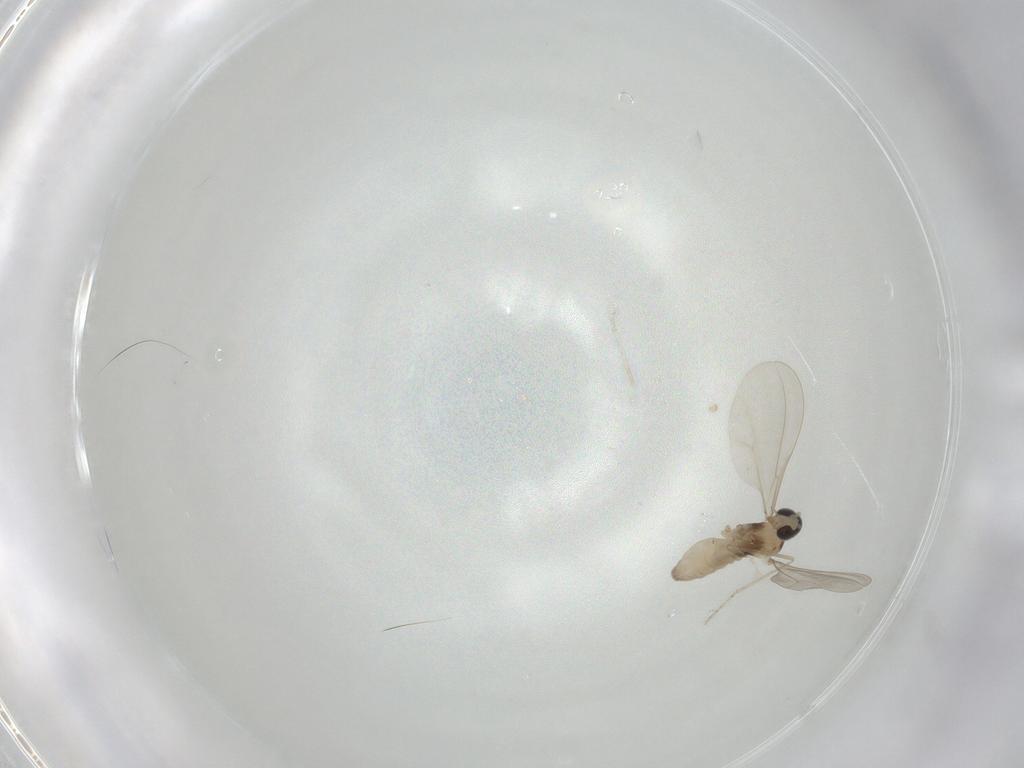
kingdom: Animalia
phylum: Arthropoda
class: Insecta
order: Diptera
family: Cecidomyiidae
